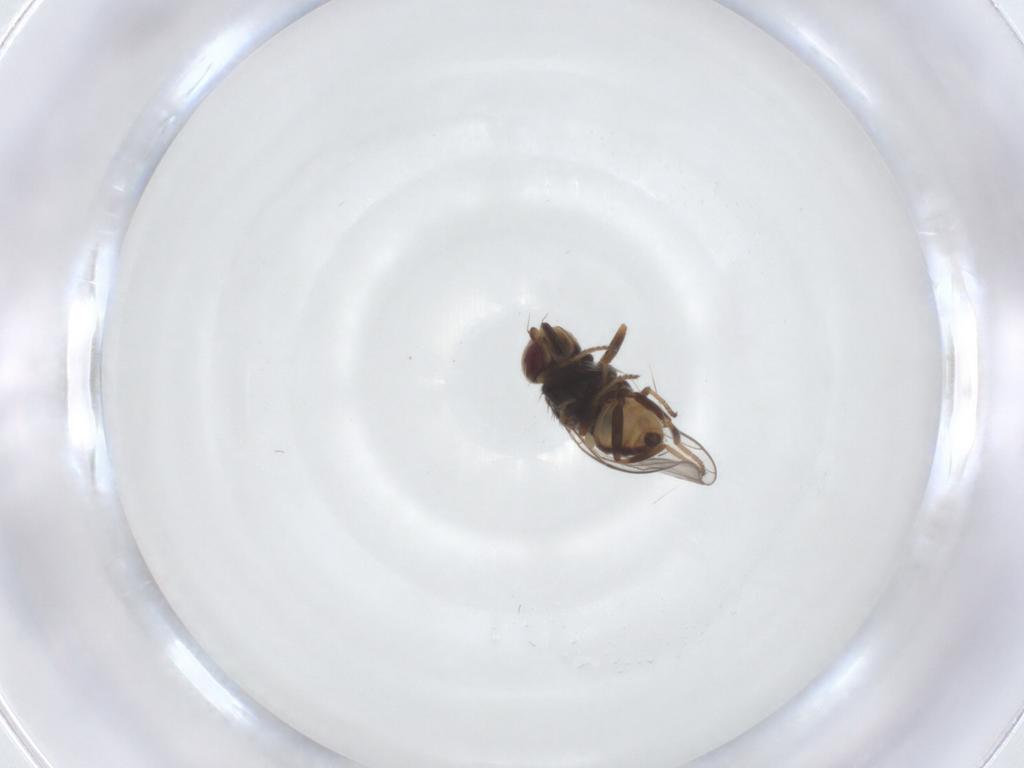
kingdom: Animalia
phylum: Arthropoda
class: Insecta
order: Diptera
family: Chloropidae
